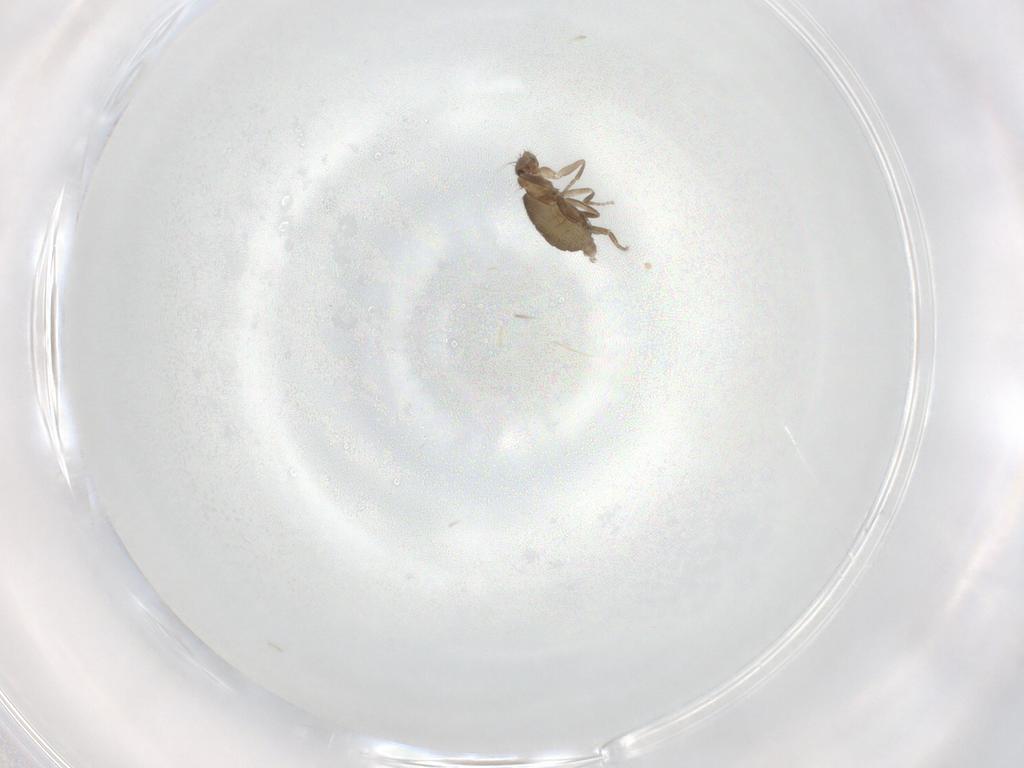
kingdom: Animalia
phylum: Arthropoda
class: Insecta
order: Diptera
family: Phoridae
